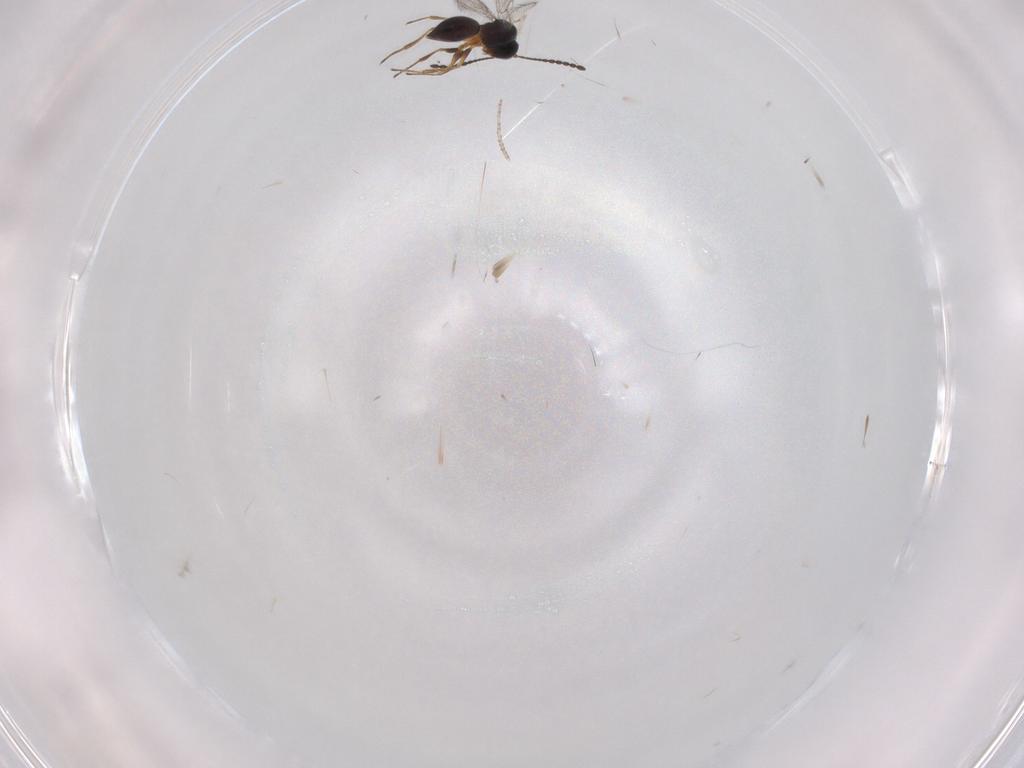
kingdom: Animalia
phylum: Arthropoda
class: Insecta
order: Hymenoptera
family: Figitidae
